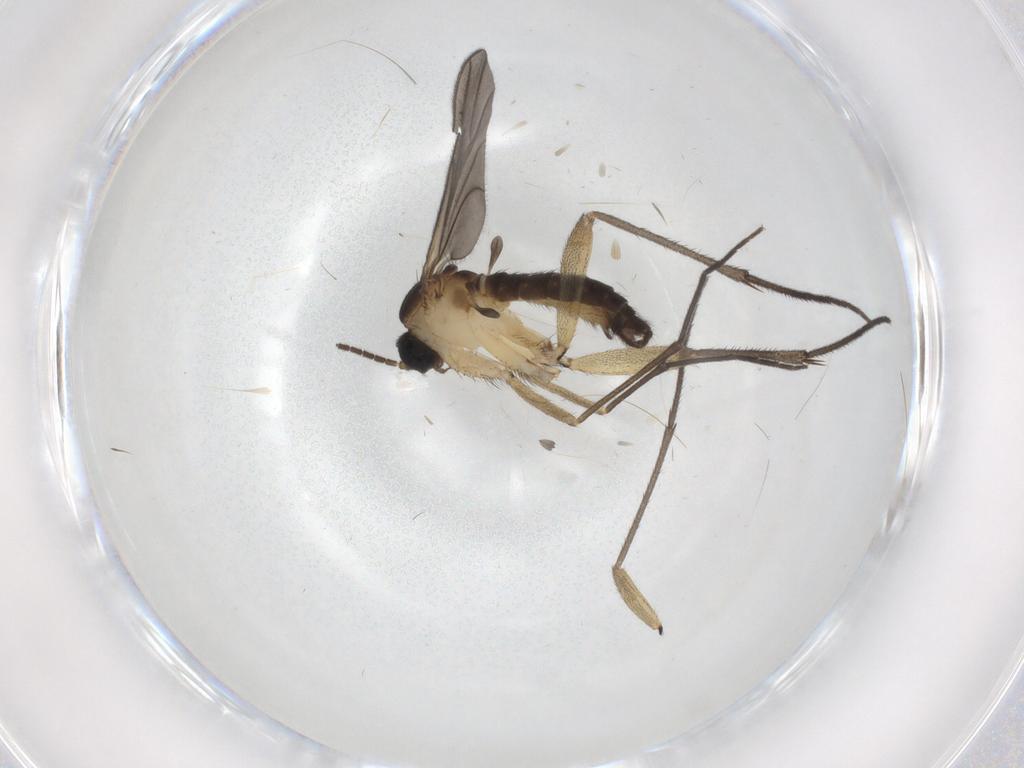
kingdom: Animalia
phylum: Arthropoda
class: Insecta
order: Diptera
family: Sciaridae
